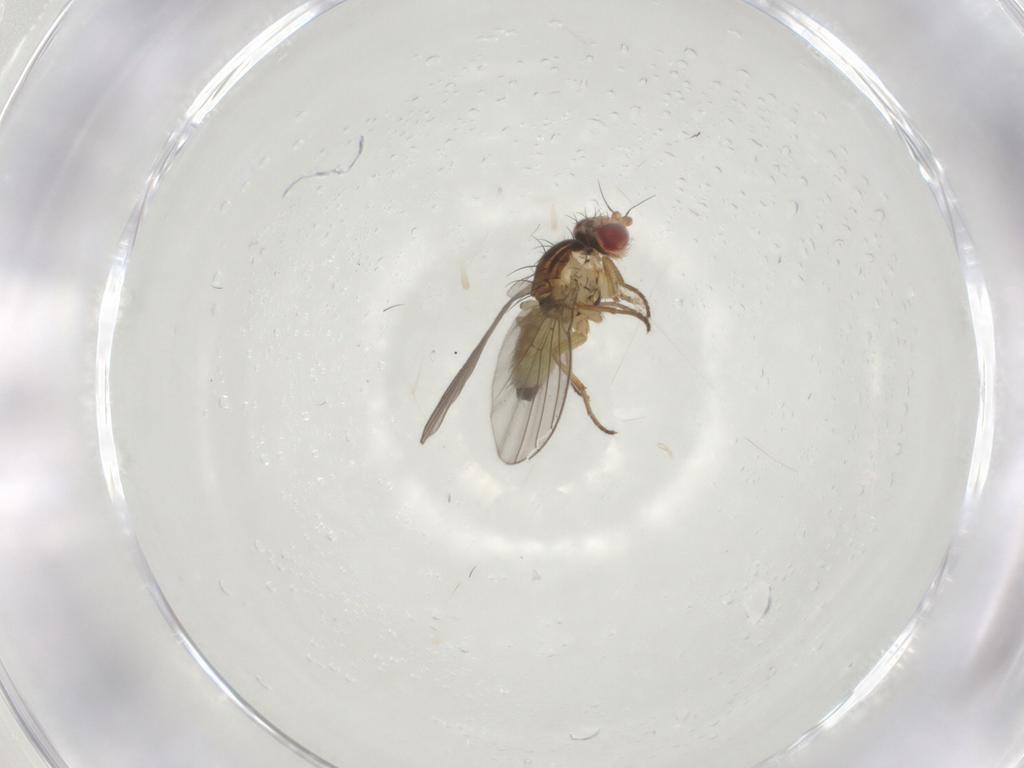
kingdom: Animalia
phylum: Arthropoda
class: Insecta
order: Diptera
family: Agromyzidae
